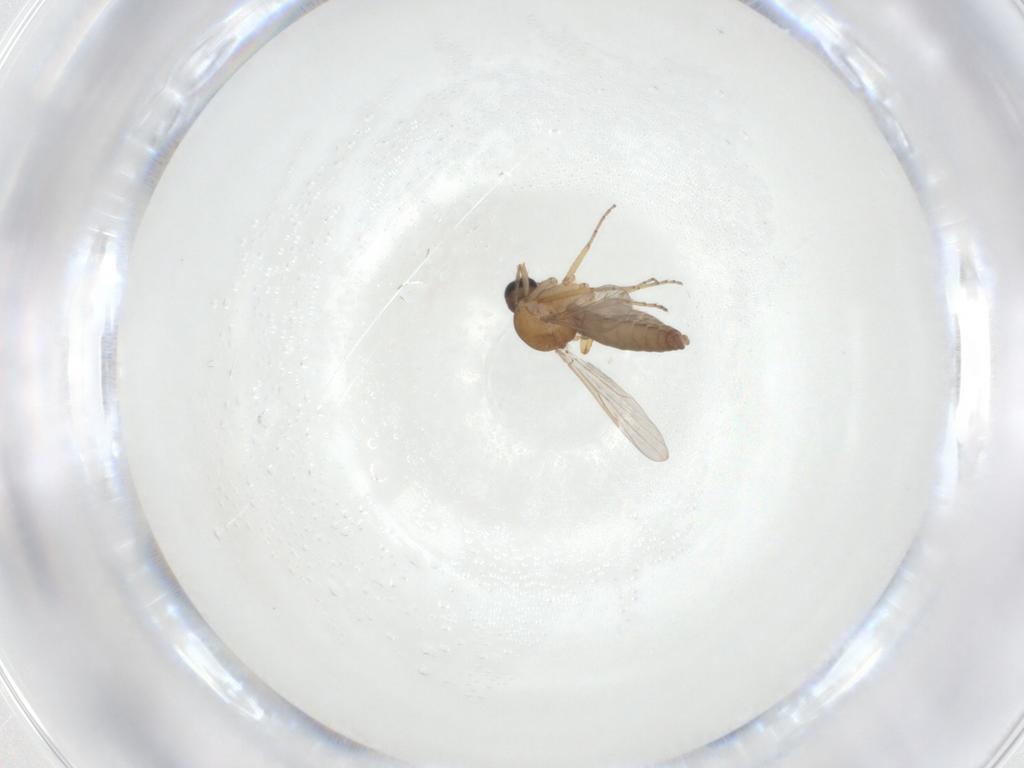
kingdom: Animalia
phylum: Arthropoda
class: Insecta
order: Diptera
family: Ceratopogonidae
